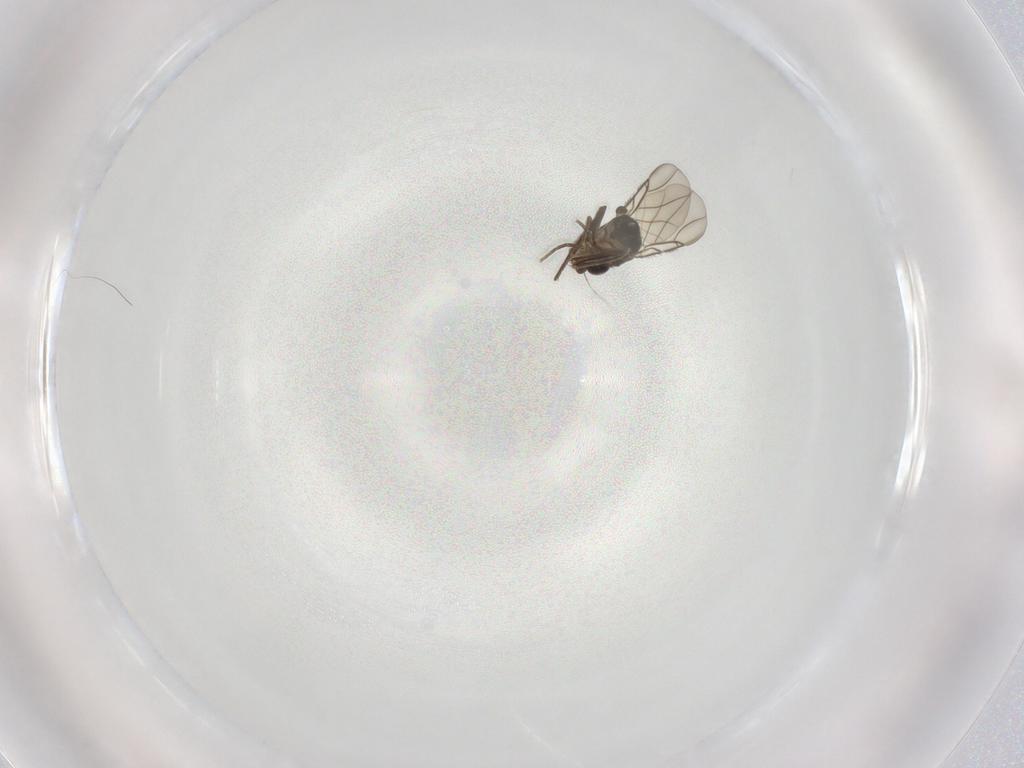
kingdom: Animalia
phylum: Arthropoda
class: Insecta
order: Diptera
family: Phoridae
